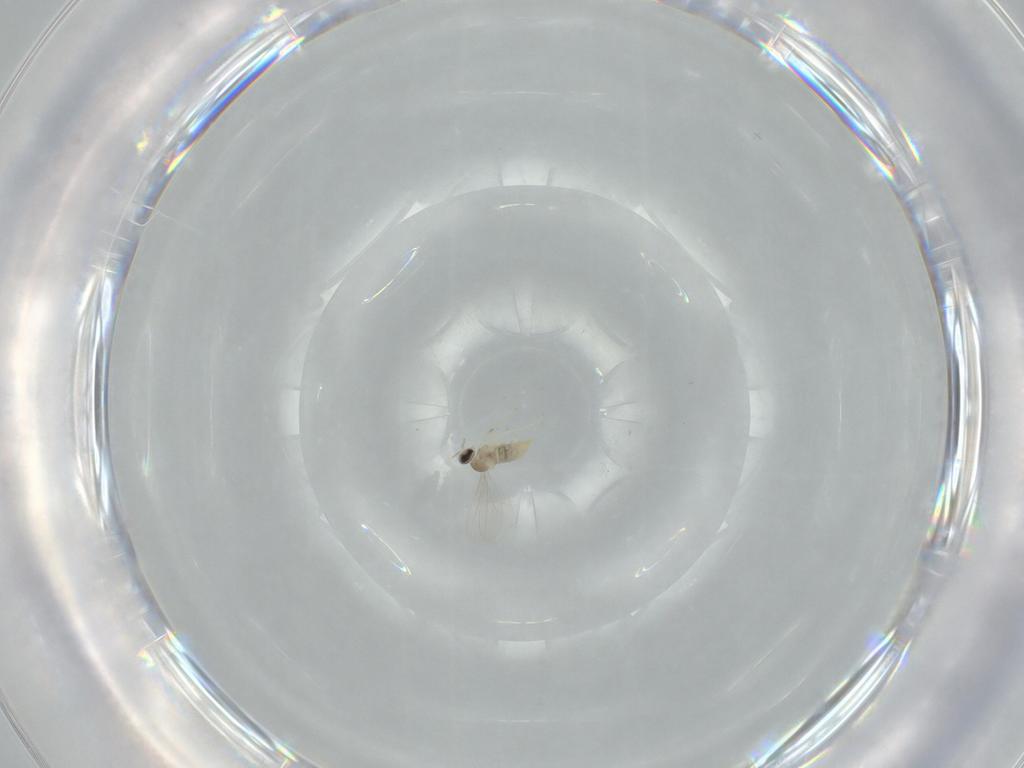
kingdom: Animalia
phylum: Arthropoda
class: Insecta
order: Diptera
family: Cecidomyiidae
